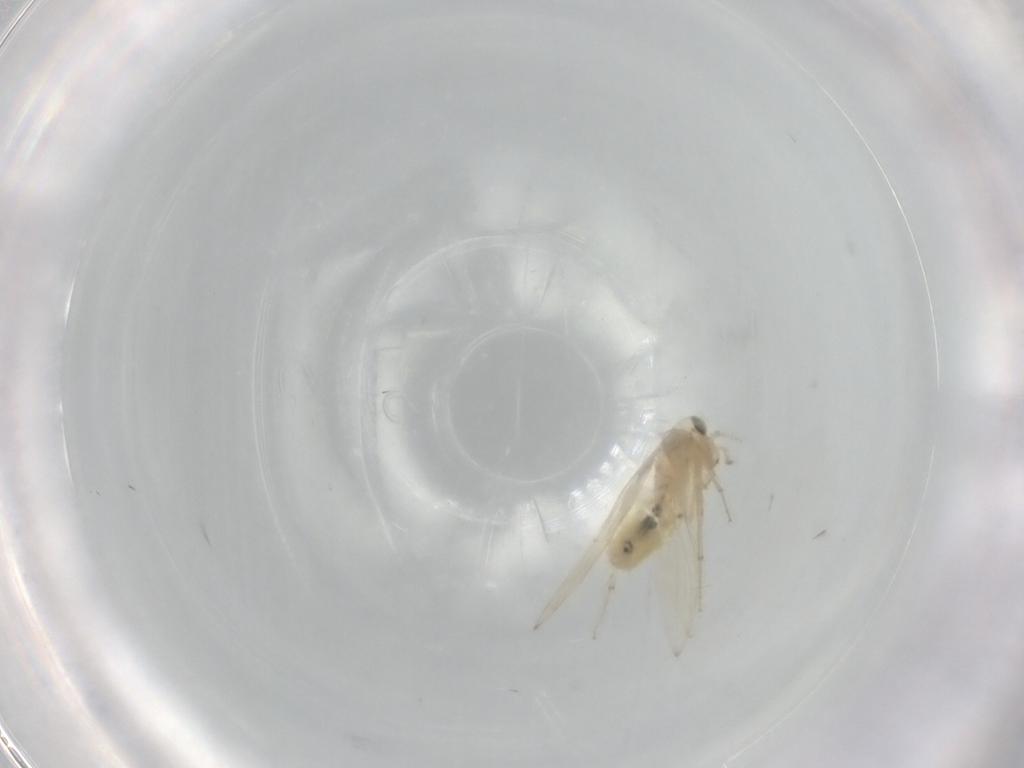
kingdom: Animalia
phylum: Arthropoda
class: Insecta
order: Psocodea
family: Lepidopsocidae
